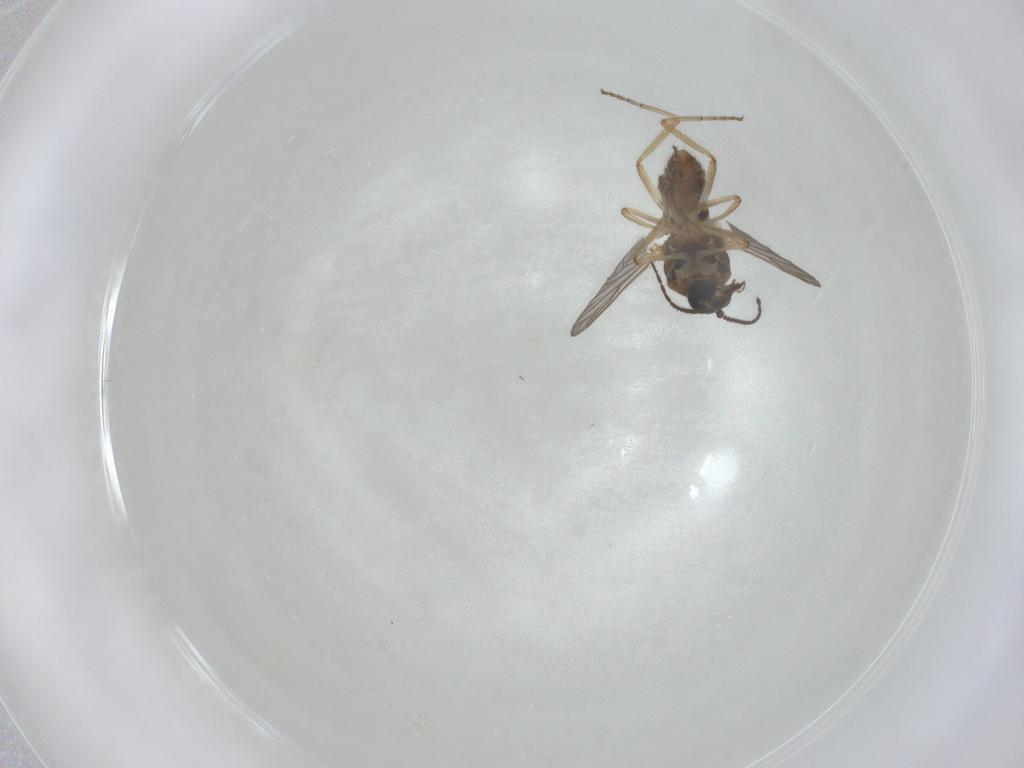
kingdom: Animalia
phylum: Arthropoda
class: Insecta
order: Diptera
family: Ceratopogonidae
